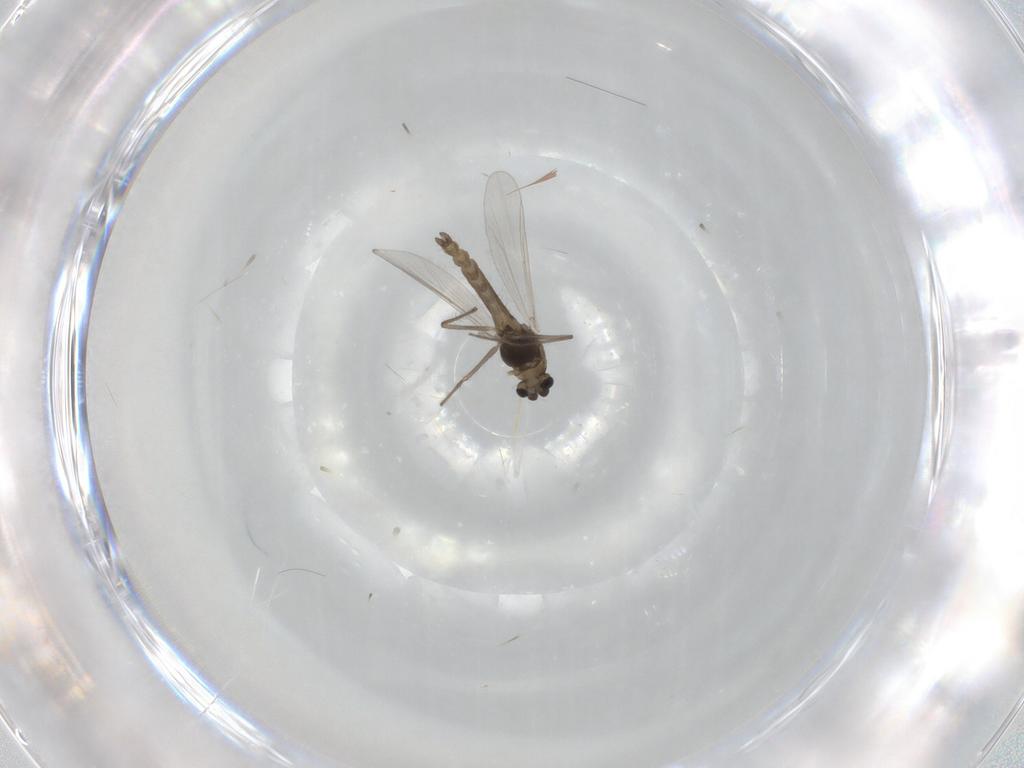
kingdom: Animalia
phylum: Arthropoda
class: Insecta
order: Diptera
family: Chironomidae
